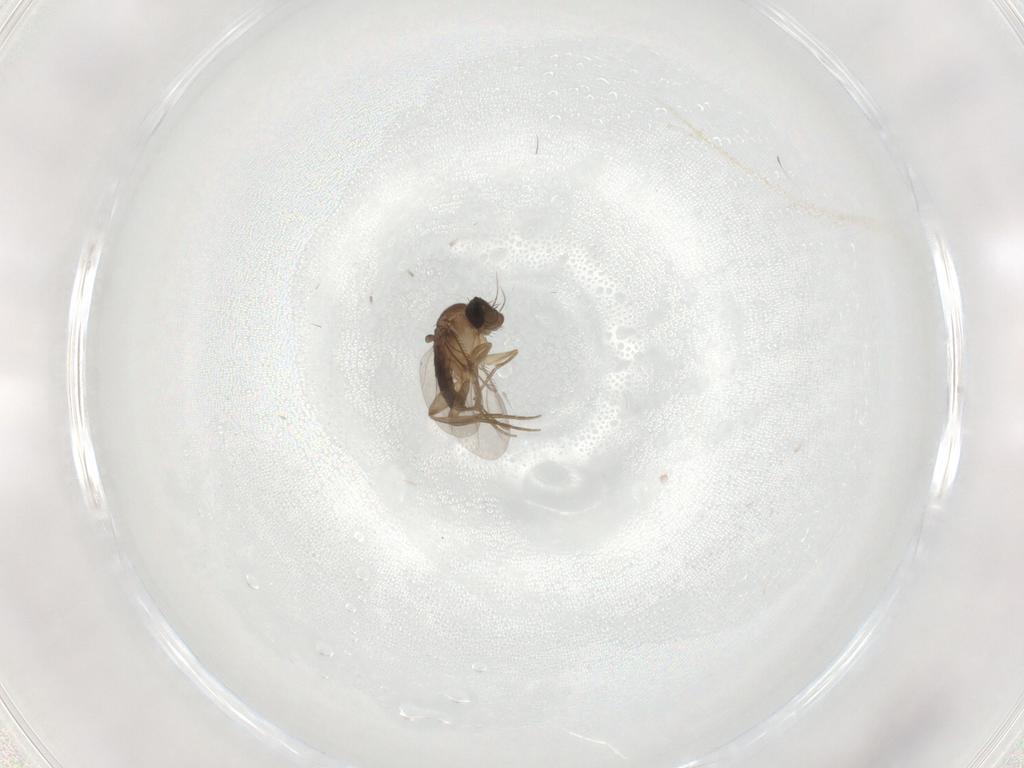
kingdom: Animalia
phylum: Arthropoda
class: Insecta
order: Diptera
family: Phoridae
